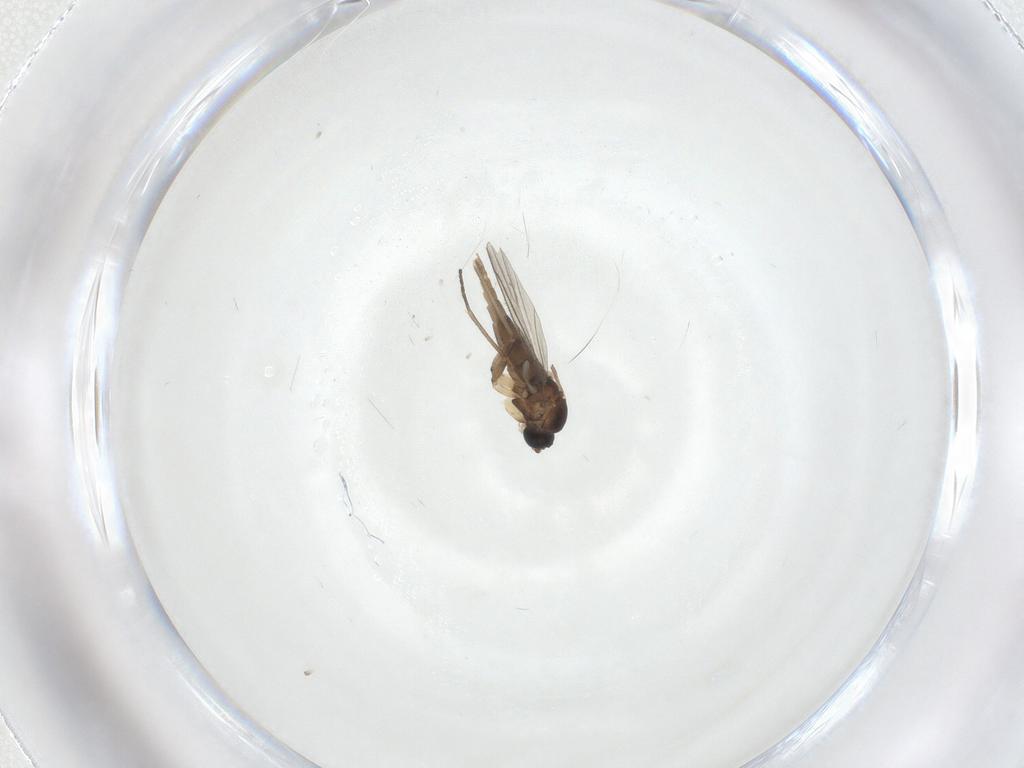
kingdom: Animalia
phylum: Arthropoda
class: Insecta
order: Diptera
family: Sciaridae
